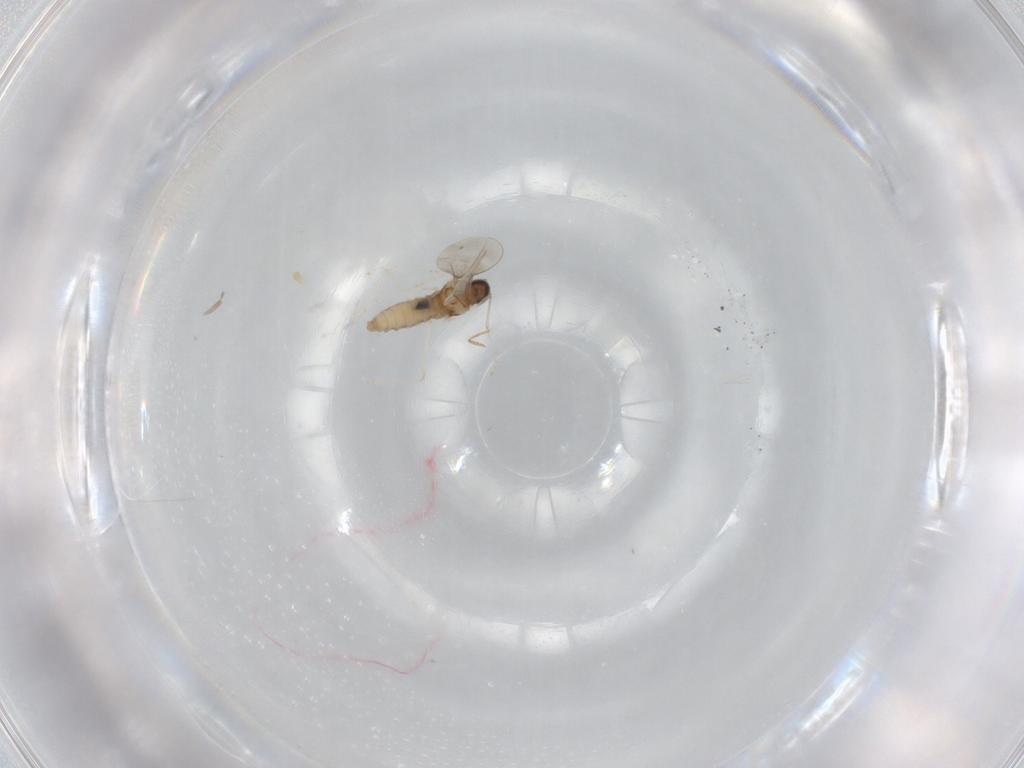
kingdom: Animalia
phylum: Arthropoda
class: Insecta
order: Diptera
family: Cecidomyiidae
